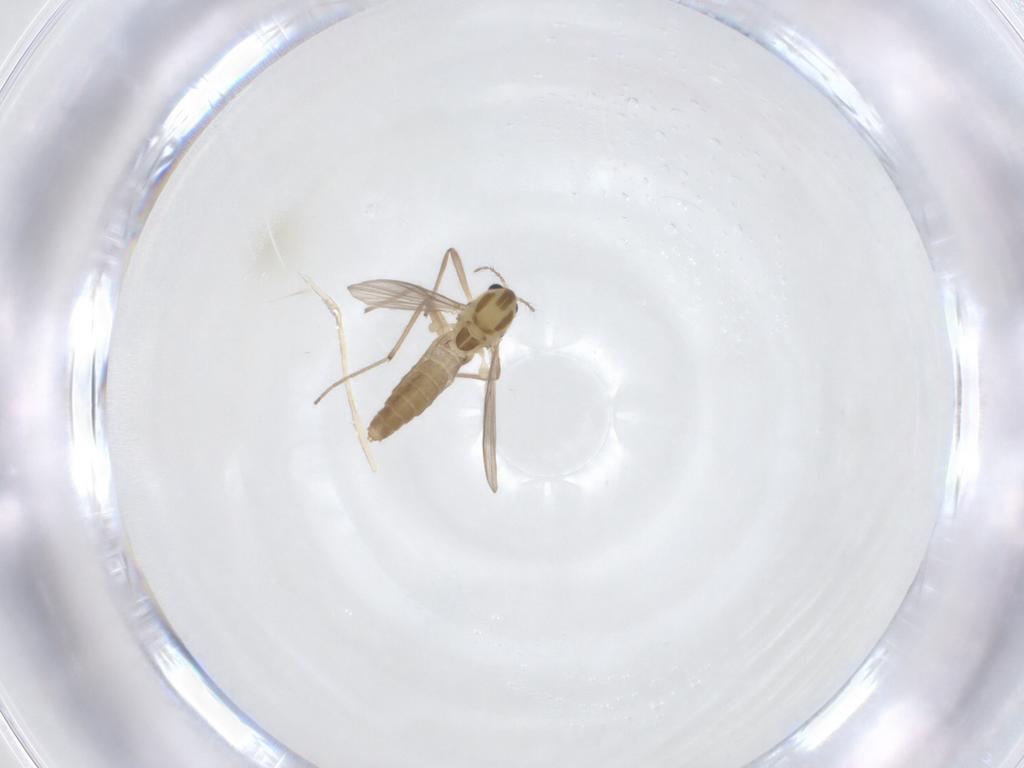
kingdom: Animalia
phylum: Arthropoda
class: Insecta
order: Diptera
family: Chironomidae
